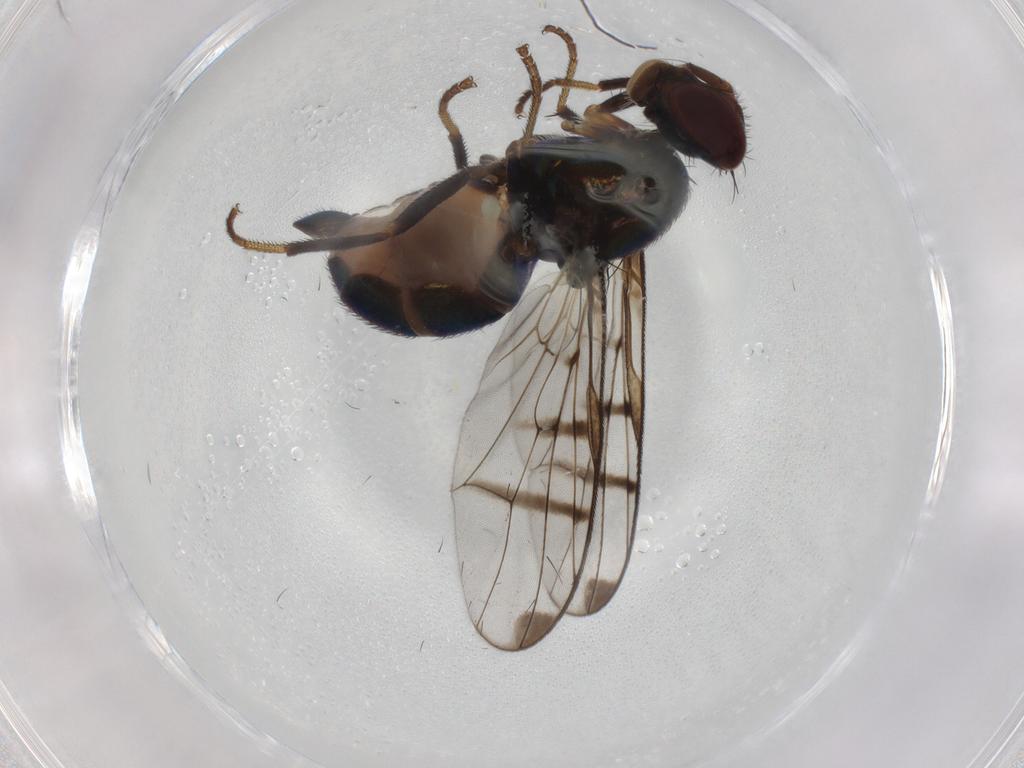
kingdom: Animalia
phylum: Arthropoda
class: Insecta
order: Diptera
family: Platystomatidae
